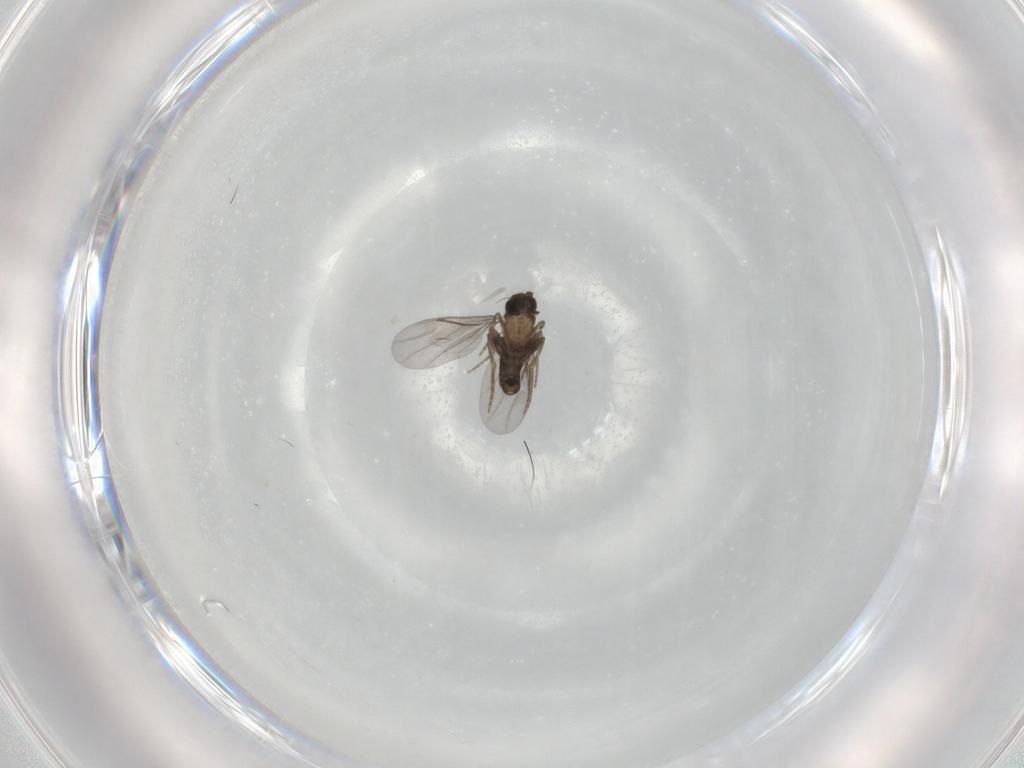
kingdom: Animalia
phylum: Arthropoda
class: Insecta
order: Diptera
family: Chironomidae
